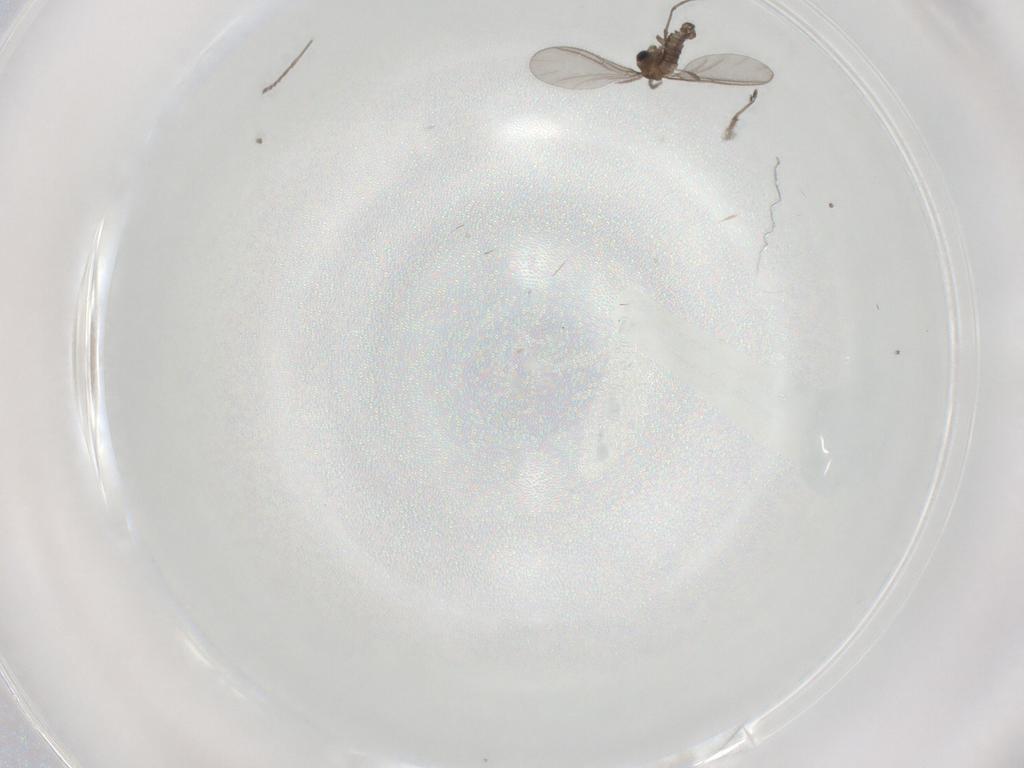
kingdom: Animalia
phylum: Arthropoda
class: Insecta
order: Diptera
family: Sciaridae
